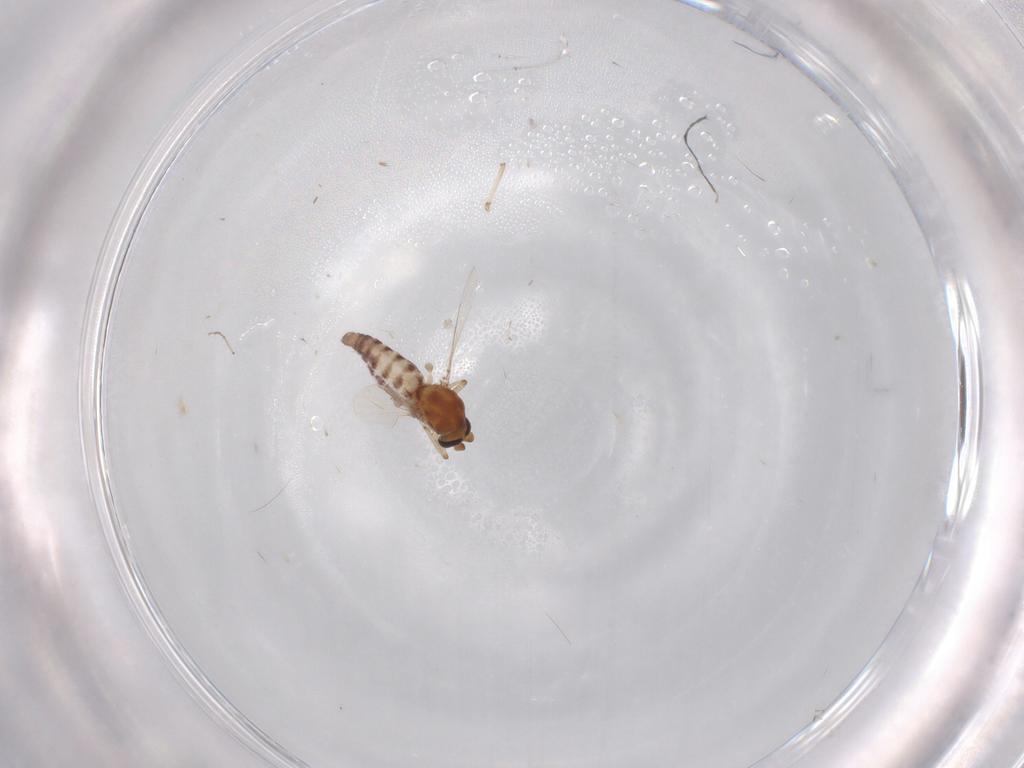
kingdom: Animalia
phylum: Arthropoda
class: Insecta
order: Diptera
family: Ceratopogonidae
